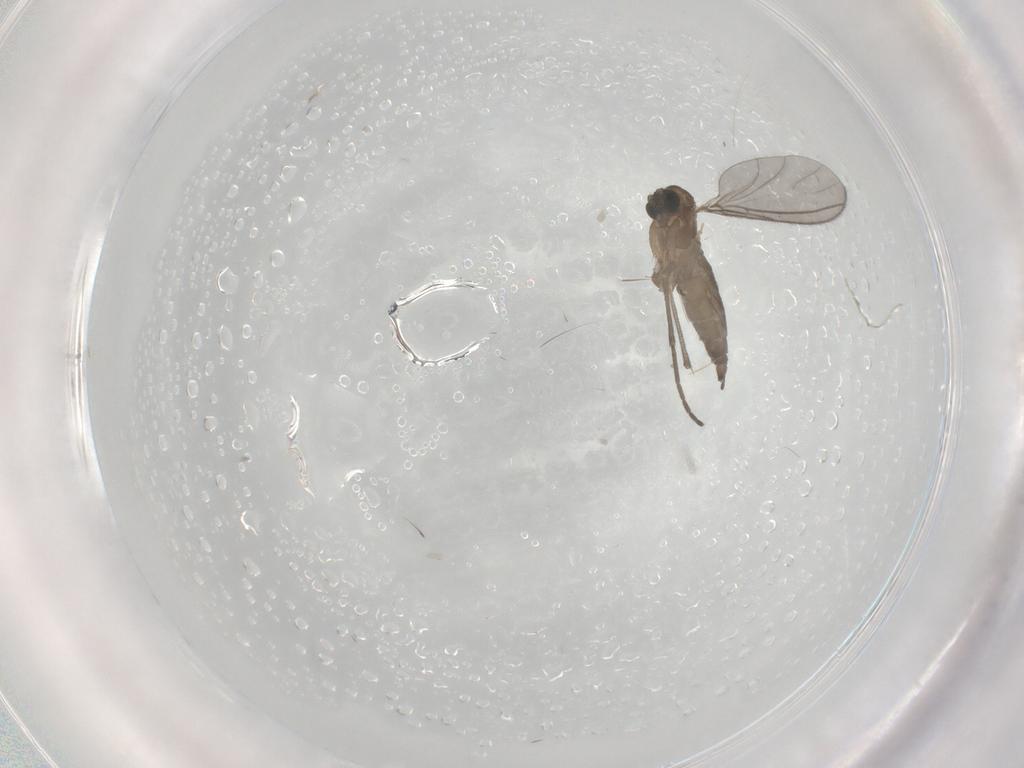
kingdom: Animalia
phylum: Arthropoda
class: Insecta
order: Diptera
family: Sciaridae
